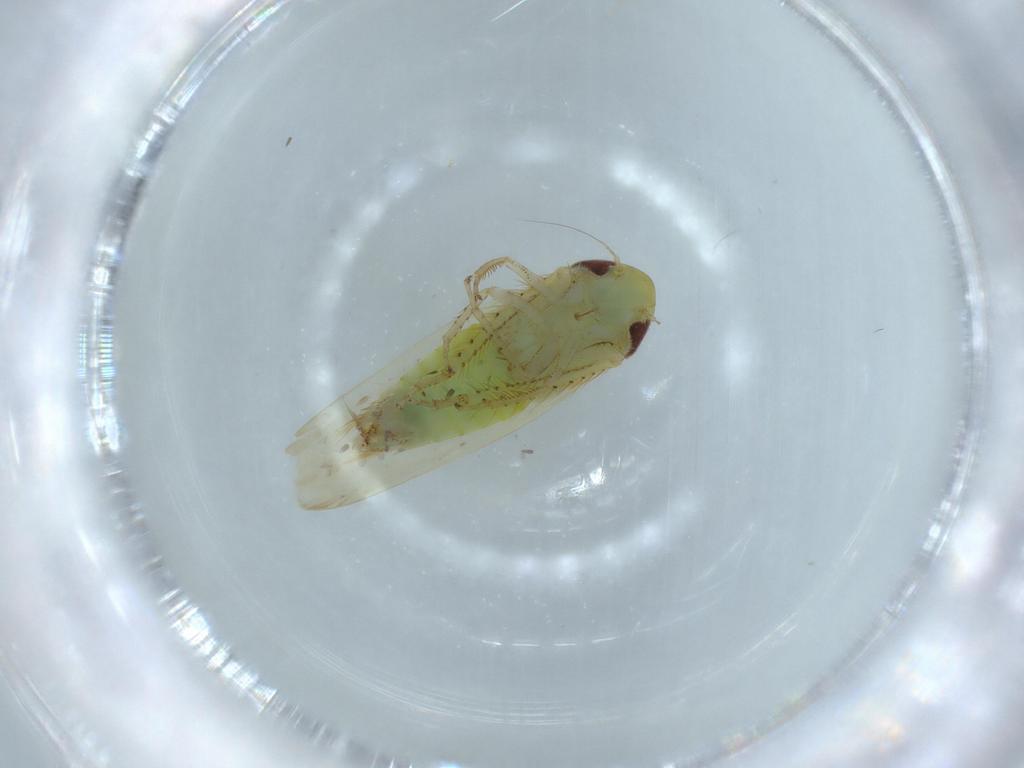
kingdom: Animalia
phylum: Arthropoda
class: Insecta
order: Hemiptera
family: Cicadellidae
